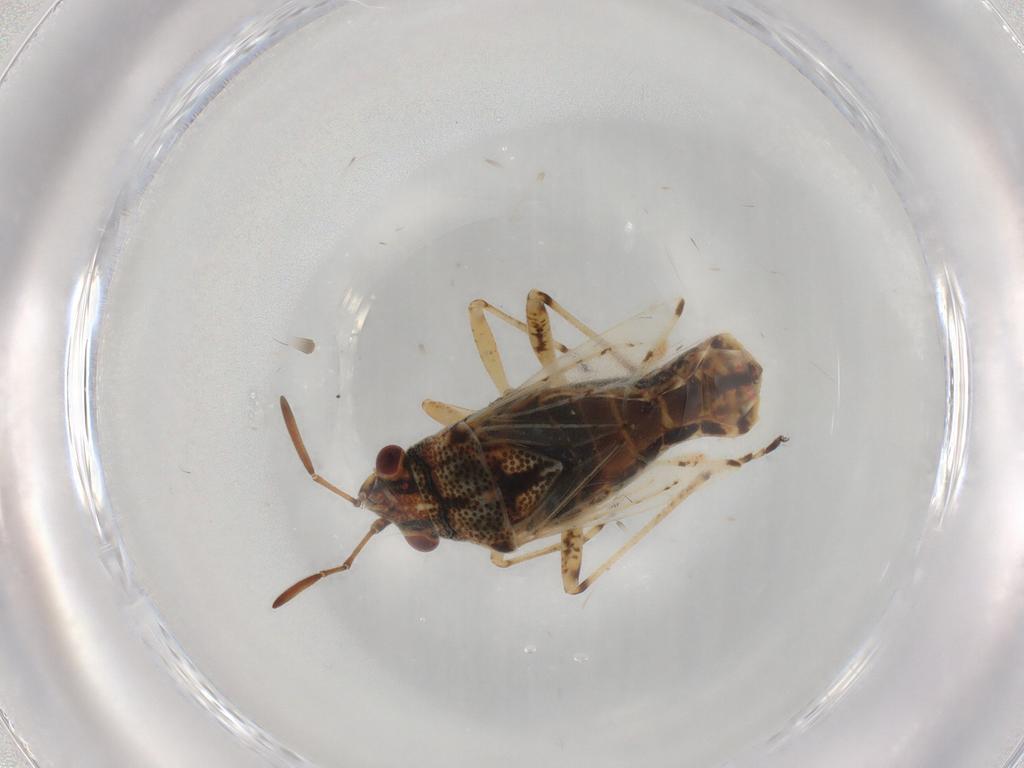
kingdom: Animalia
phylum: Arthropoda
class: Insecta
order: Hemiptera
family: Lygaeidae
